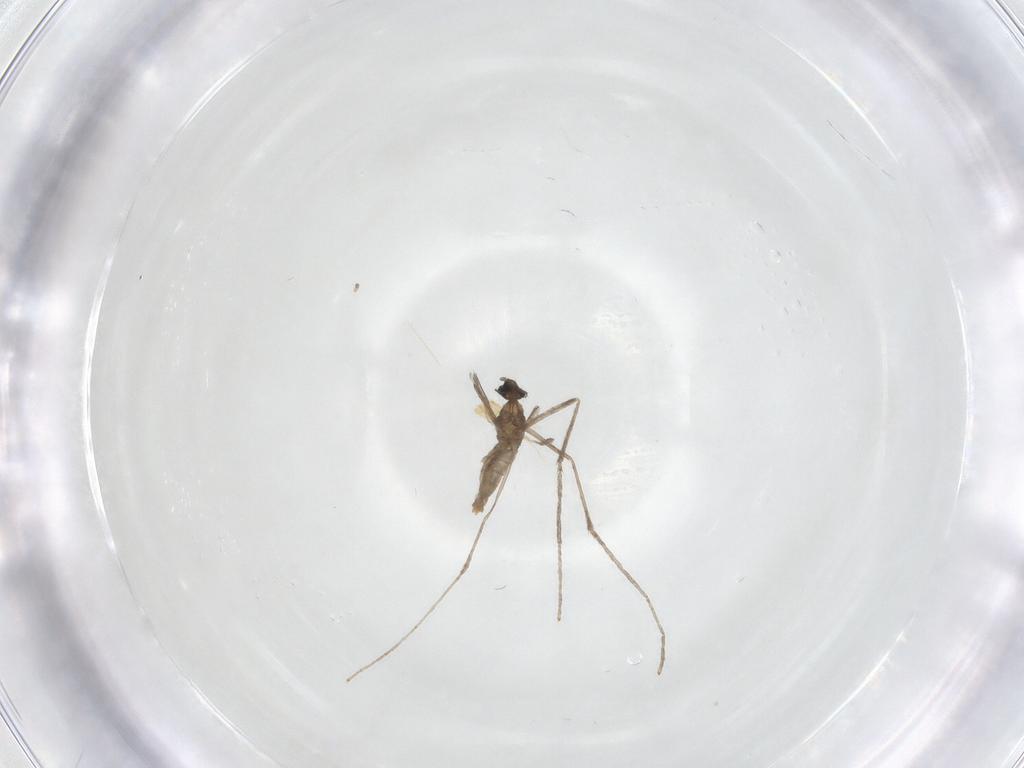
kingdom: Animalia
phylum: Arthropoda
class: Insecta
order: Diptera
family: Cecidomyiidae
